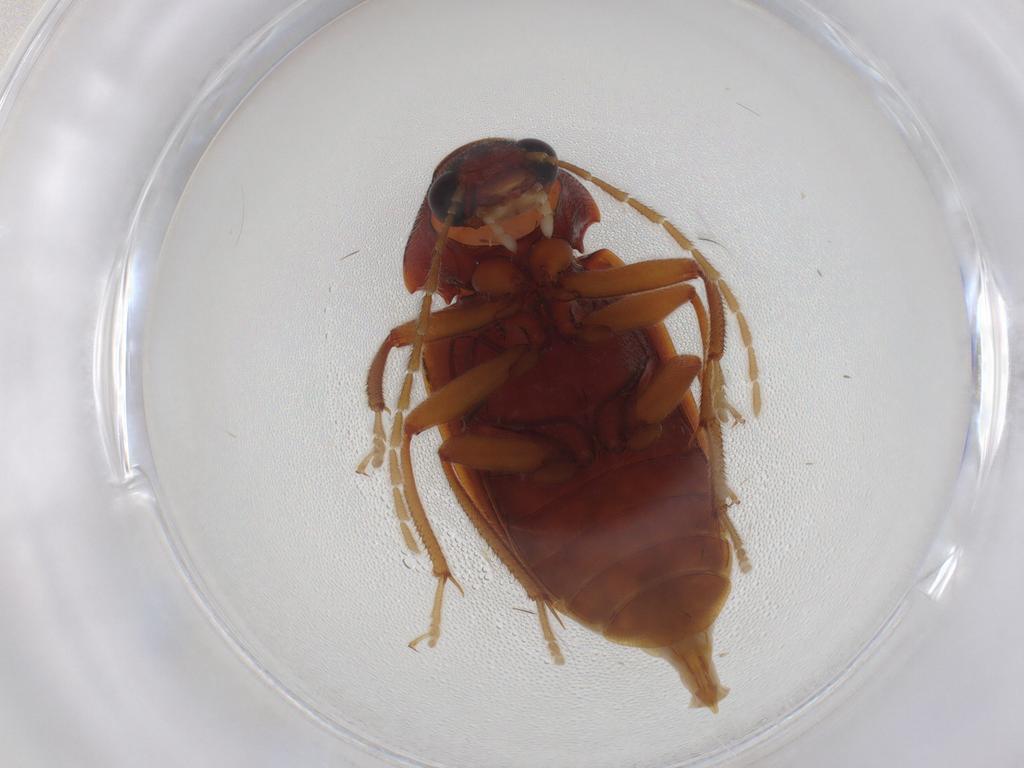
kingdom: Animalia
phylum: Arthropoda
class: Insecta
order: Coleoptera
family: Ptilodactylidae
